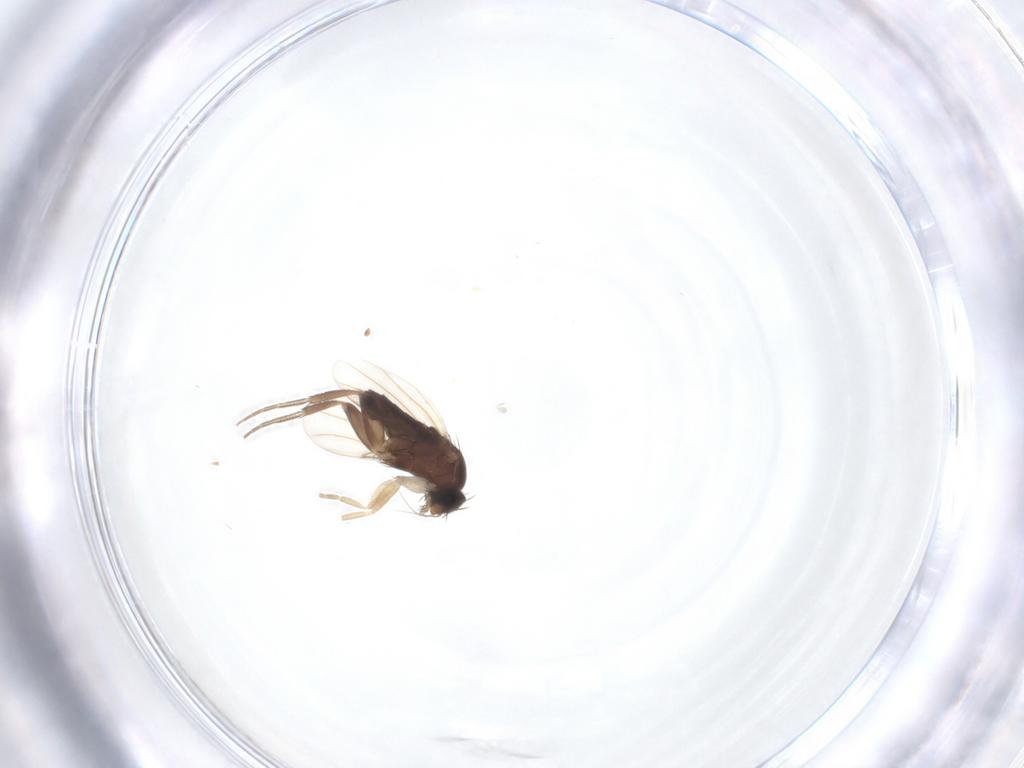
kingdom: Animalia
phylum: Arthropoda
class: Insecta
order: Diptera
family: Phoridae
